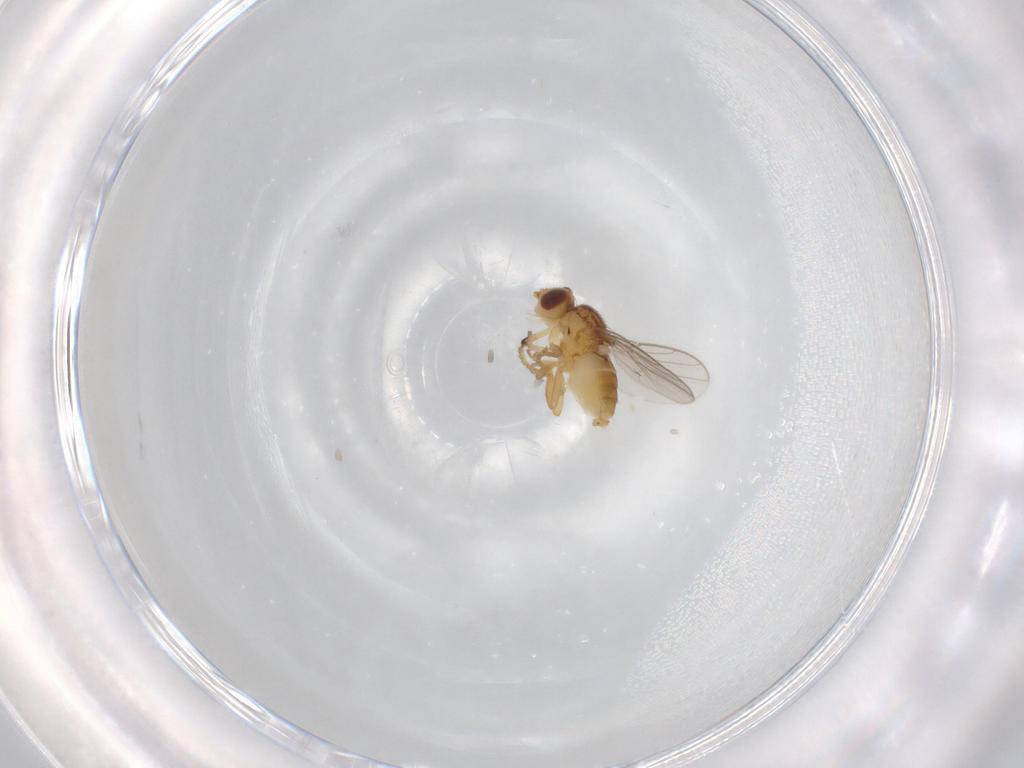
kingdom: Animalia
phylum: Arthropoda
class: Insecta
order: Diptera
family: Chloropidae
